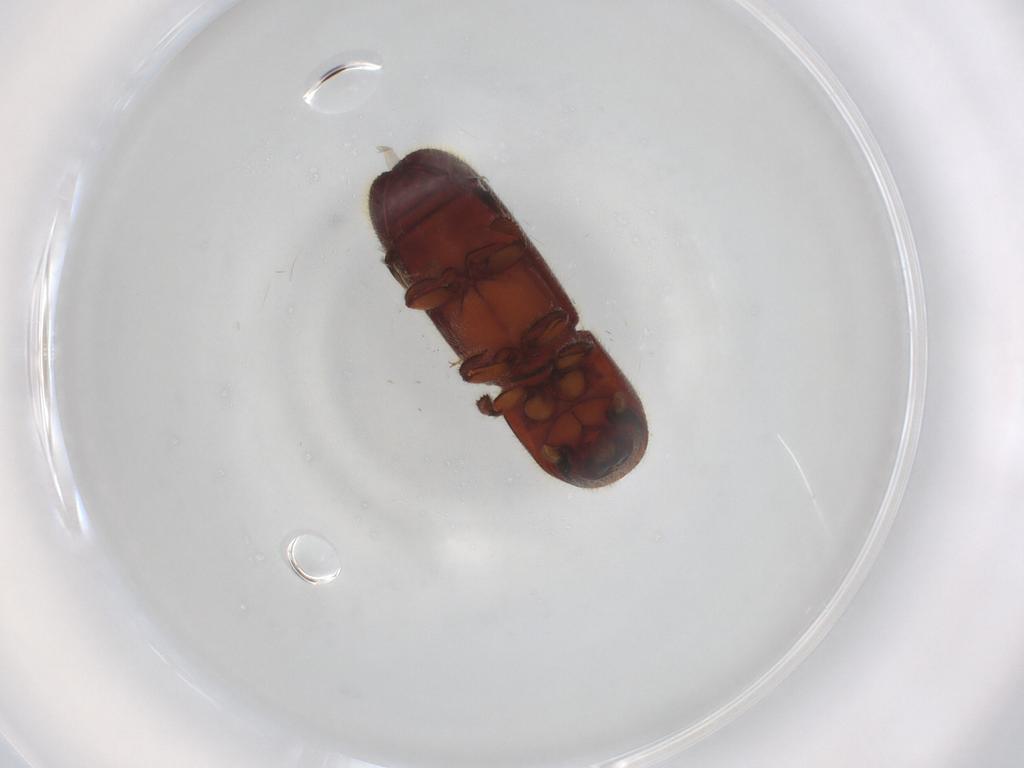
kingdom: Animalia
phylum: Arthropoda
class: Insecta
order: Coleoptera
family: Curculionidae
